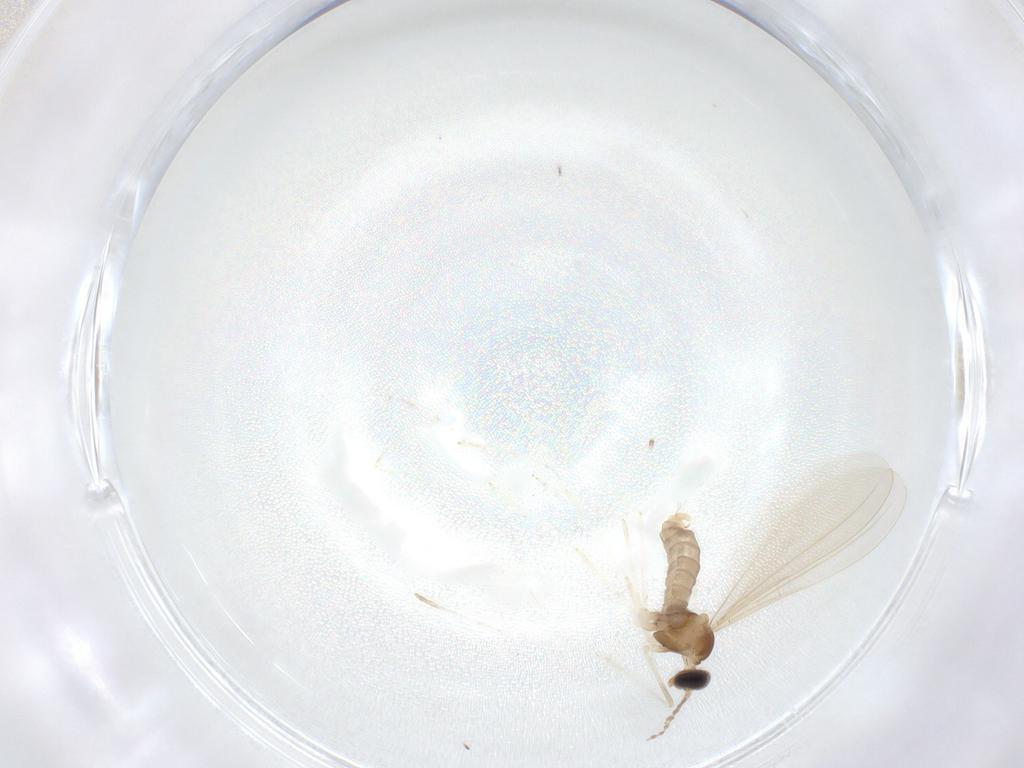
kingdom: Animalia
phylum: Arthropoda
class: Insecta
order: Diptera
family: Cecidomyiidae
